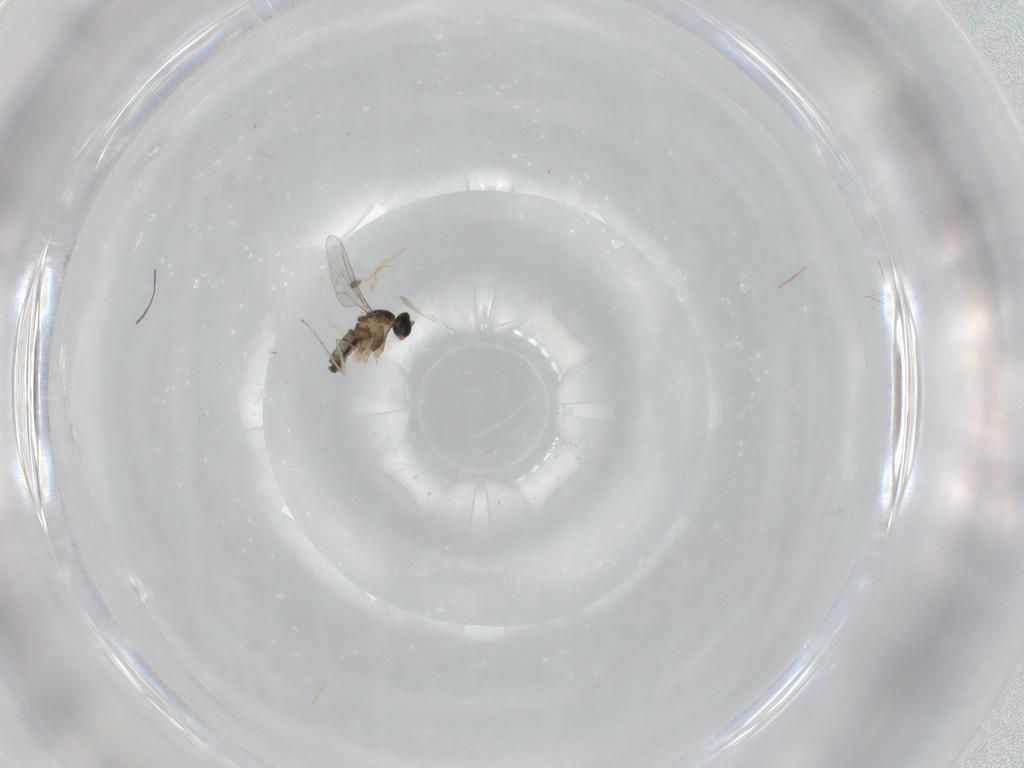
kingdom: Animalia
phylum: Arthropoda
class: Insecta
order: Diptera
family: Cecidomyiidae
